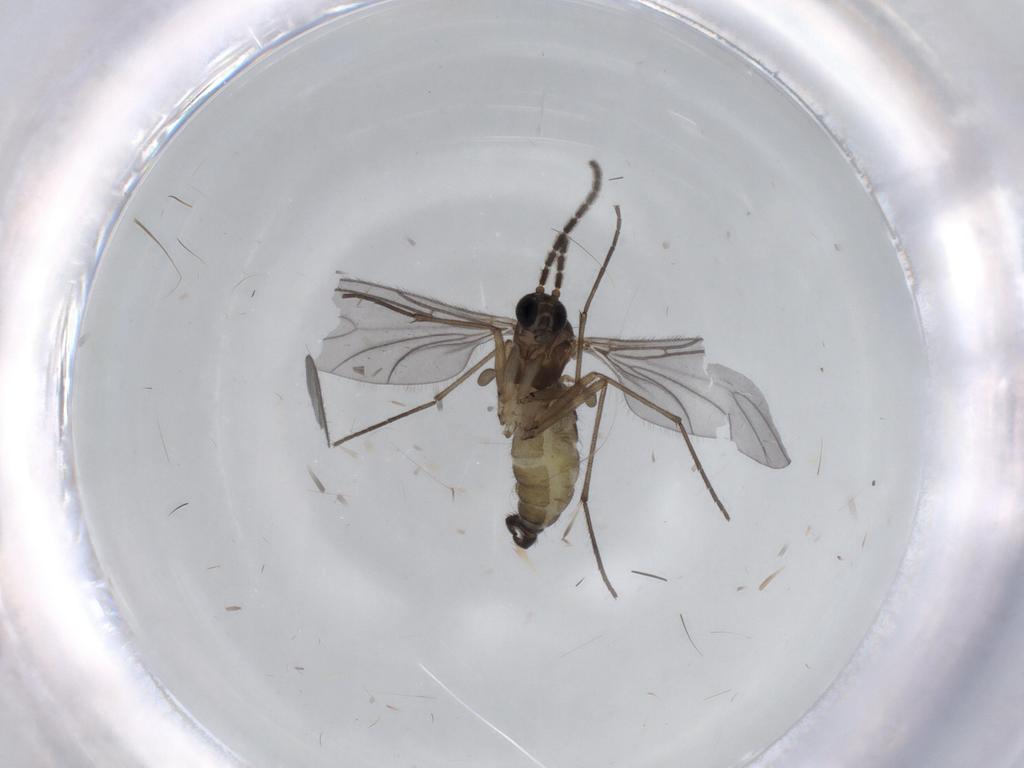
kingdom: Animalia
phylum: Arthropoda
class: Insecta
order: Diptera
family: Sciaridae
